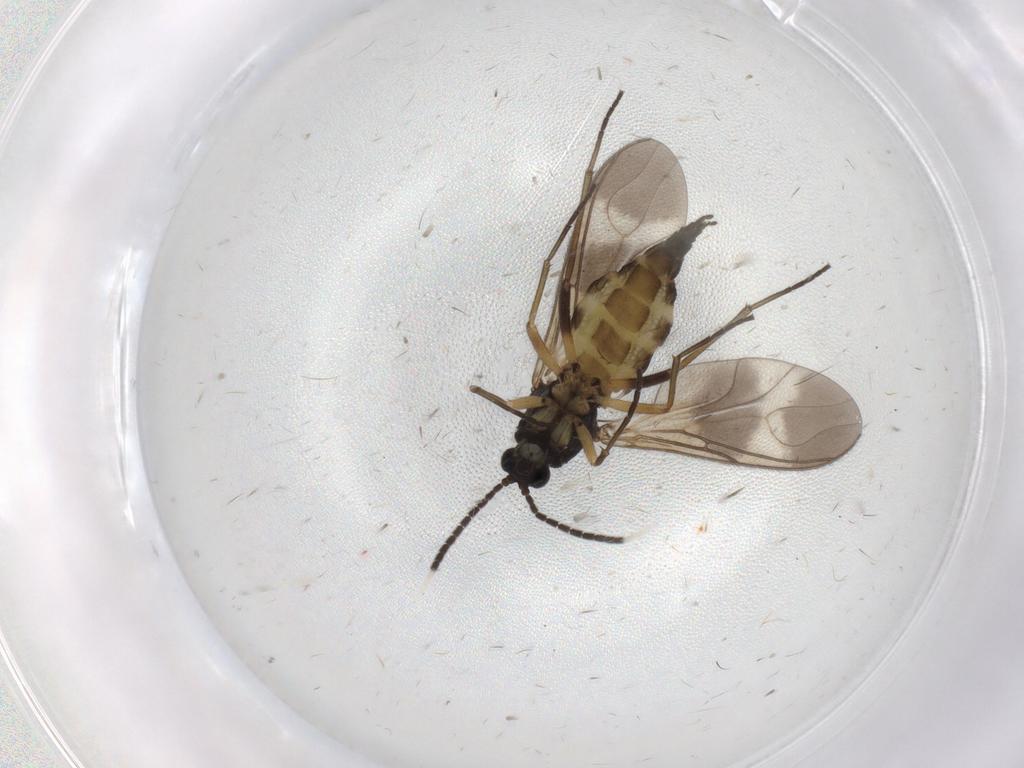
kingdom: Animalia
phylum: Arthropoda
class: Insecta
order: Diptera
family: Sciaridae
